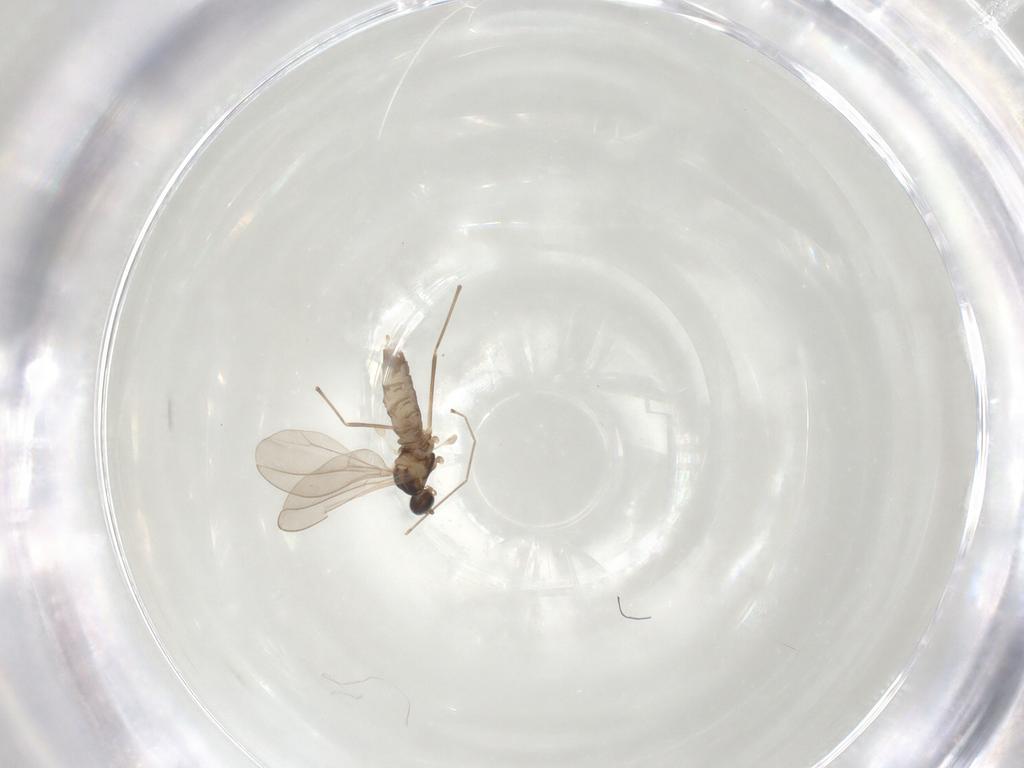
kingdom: Animalia
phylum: Arthropoda
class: Insecta
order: Diptera
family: Cecidomyiidae
